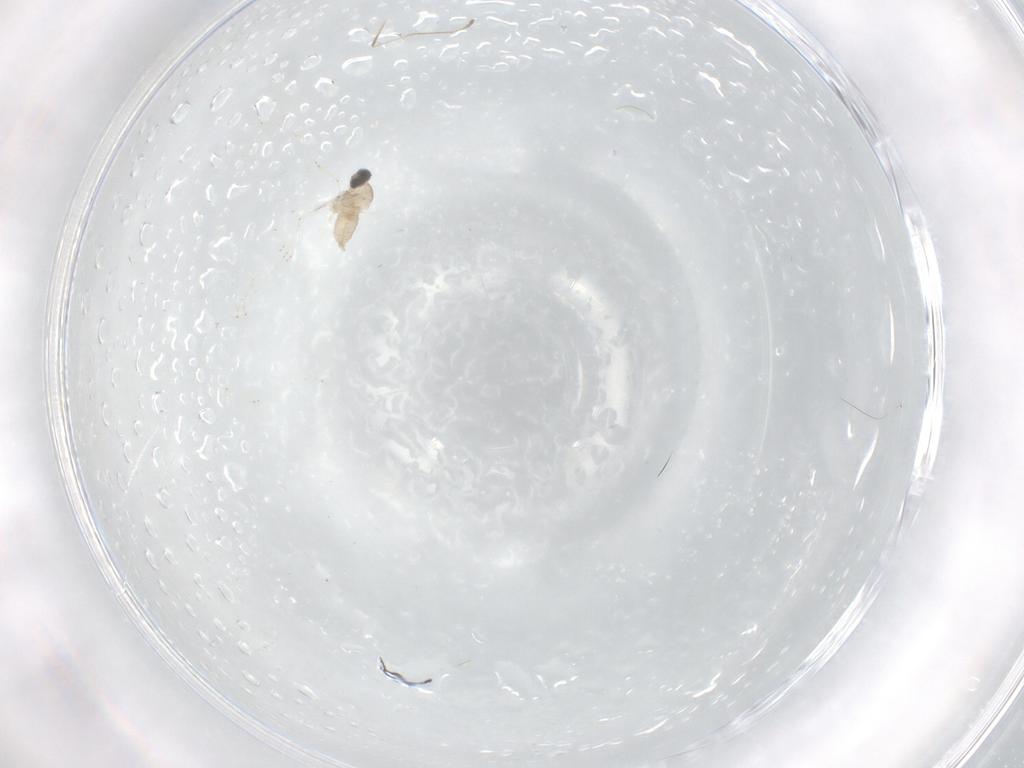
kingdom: Animalia
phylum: Arthropoda
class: Insecta
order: Diptera
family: Cecidomyiidae
